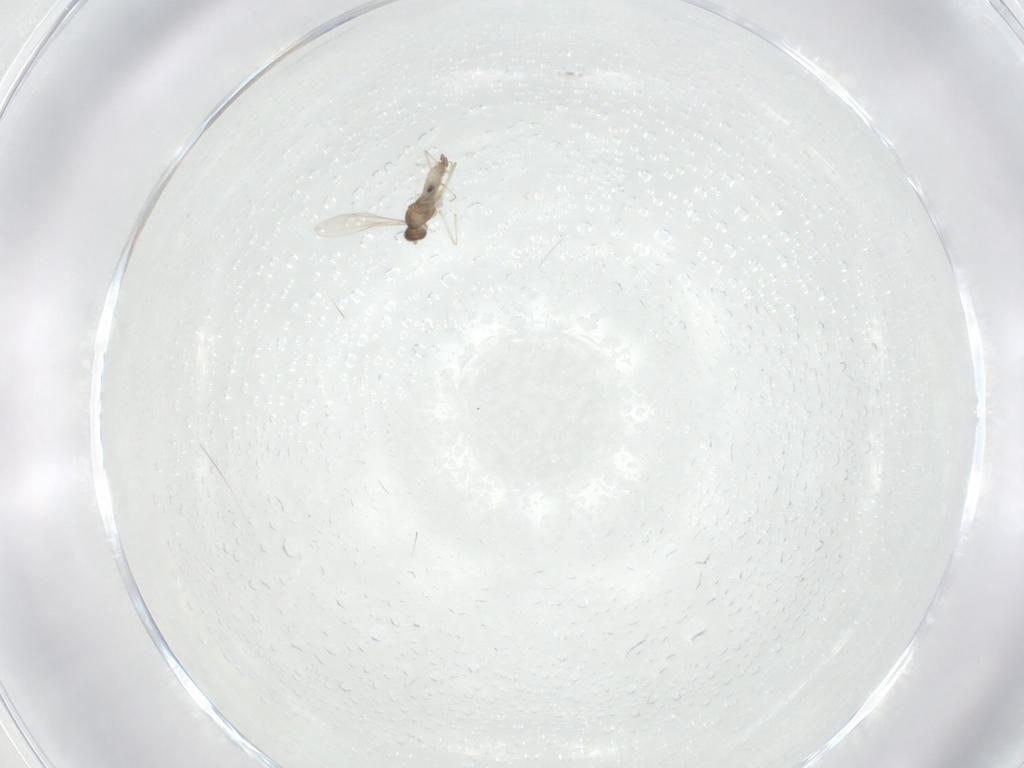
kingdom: Animalia
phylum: Arthropoda
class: Insecta
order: Diptera
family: Cecidomyiidae
